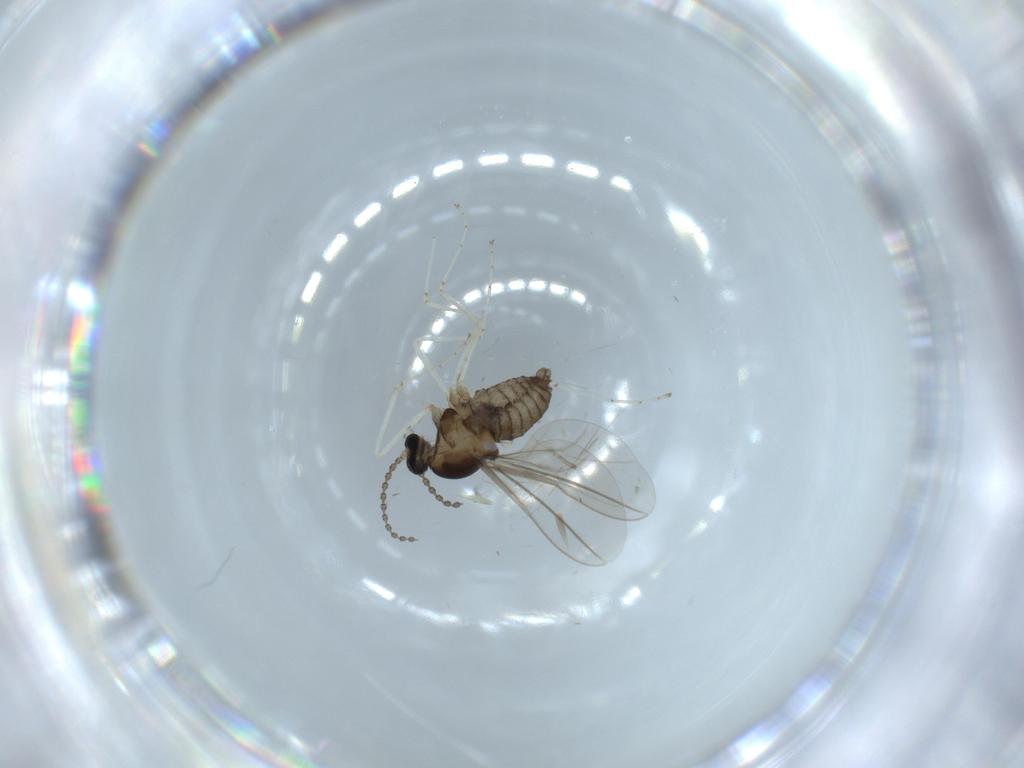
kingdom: Animalia
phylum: Arthropoda
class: Insecta
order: Diptera
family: Cecidomyiidae
